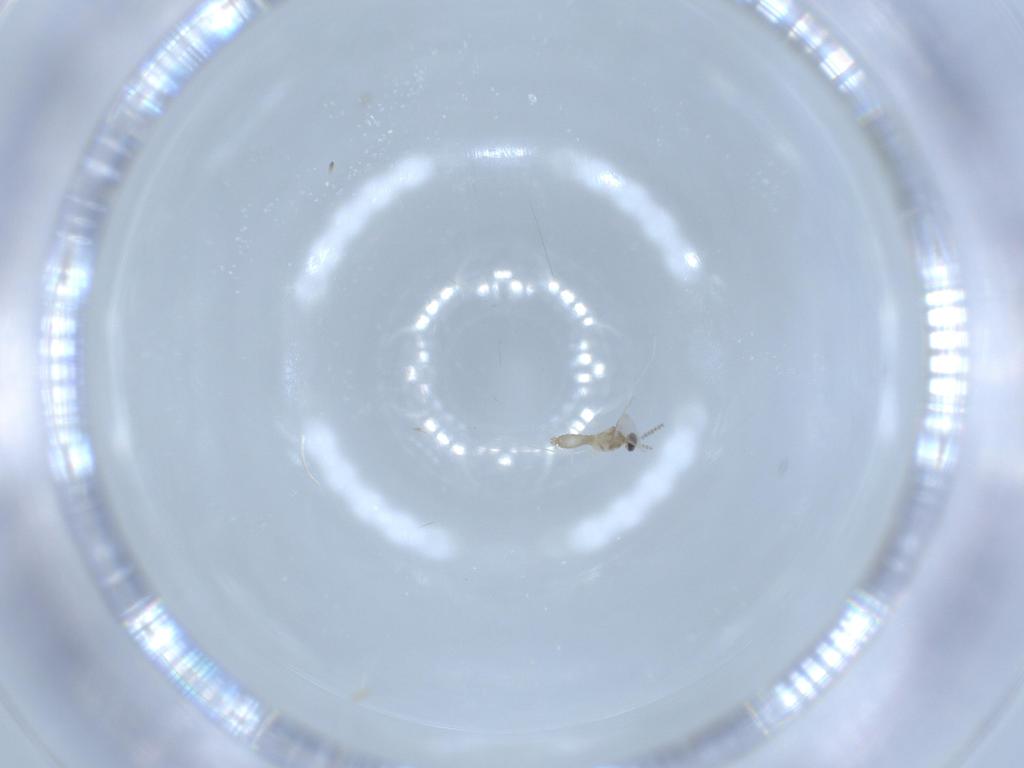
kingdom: Animalia
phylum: Arthropoda
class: Insecta
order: Diptera
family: Cecidomyiidae
